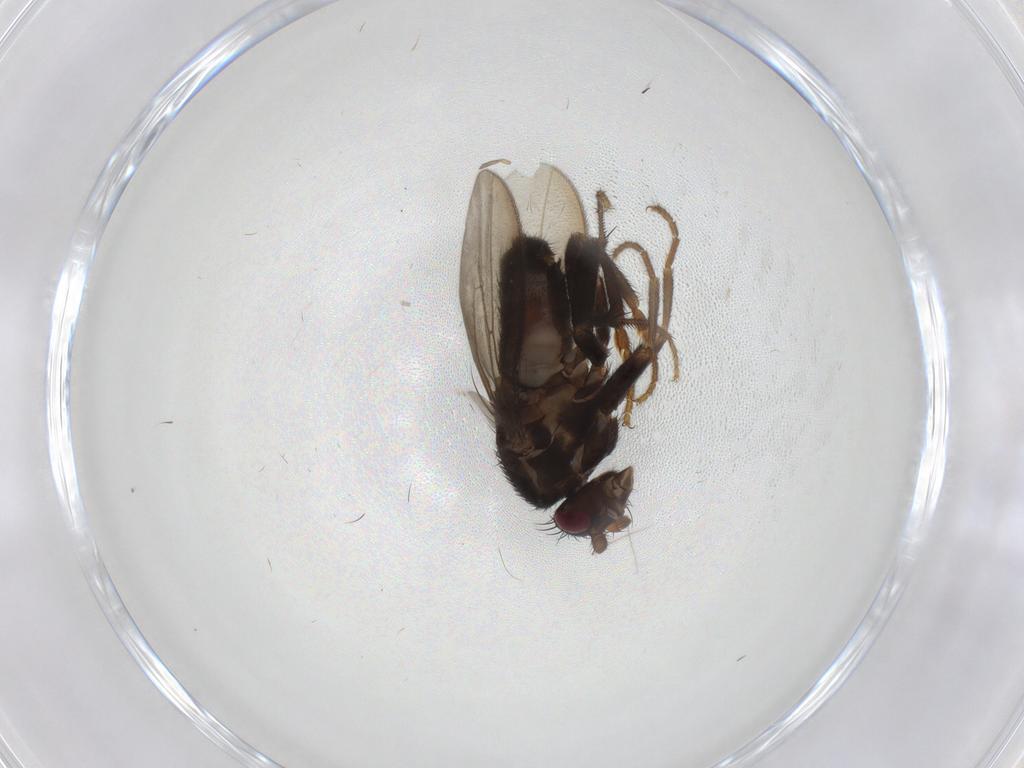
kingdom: Animalia
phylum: Arthropoda
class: Insecta
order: Diptera
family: Sphaeroceridae
